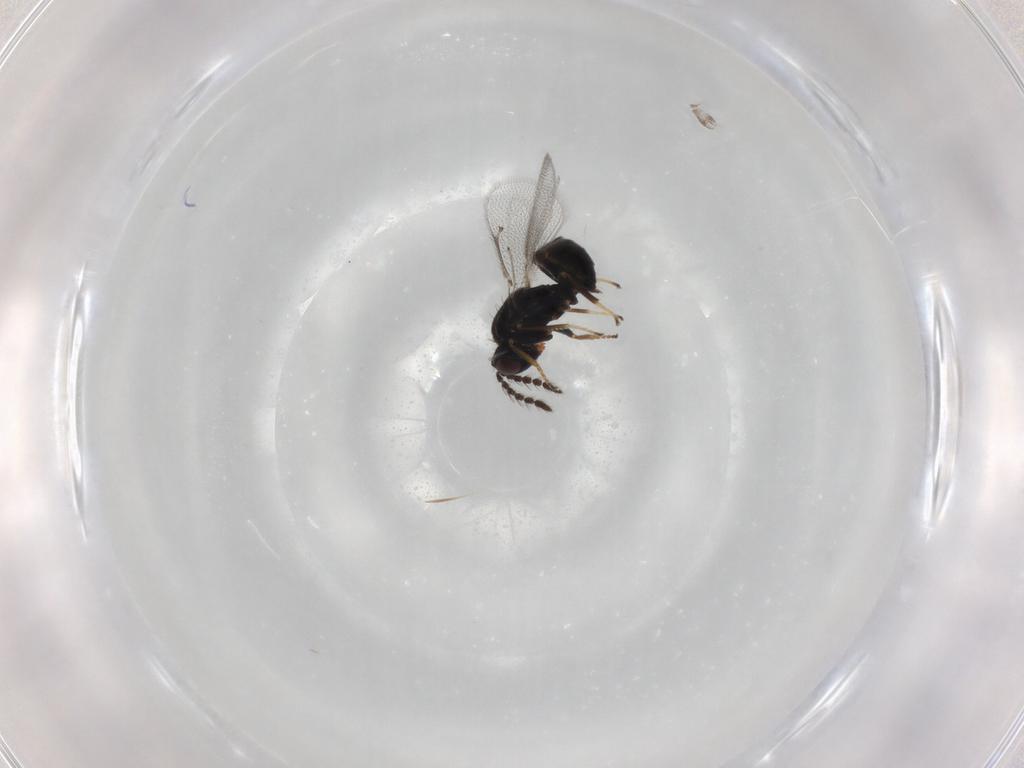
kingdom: Animalia
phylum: Arthropoda
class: Insecta
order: Hymenoptera
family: Eulophidae
